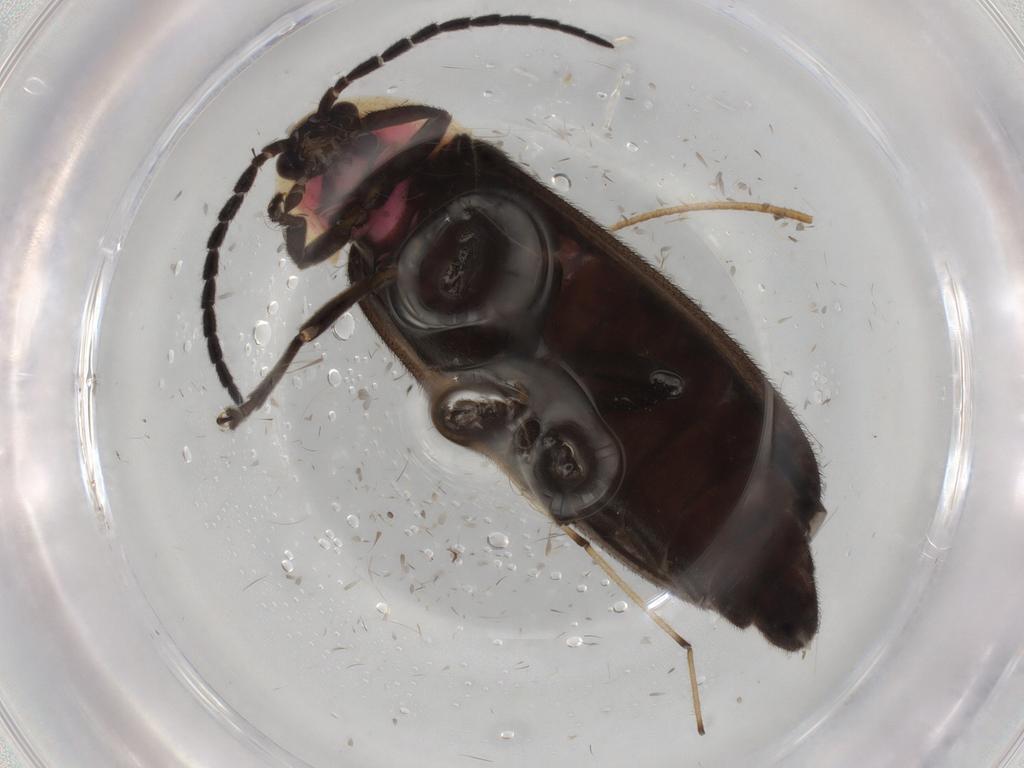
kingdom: Animalia
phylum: Arthropoda
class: Insecta
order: Coleoptera
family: Lampyridae
